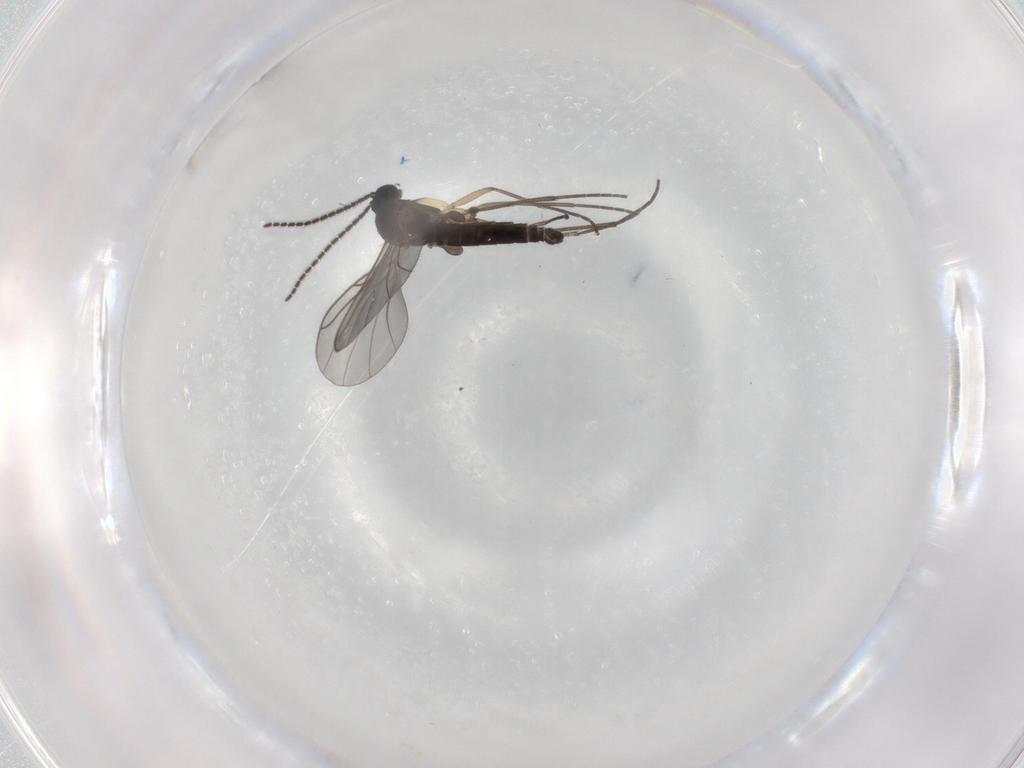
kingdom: Animalia
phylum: Arthropoda
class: Insecta
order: Diptera
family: Sciaridae
